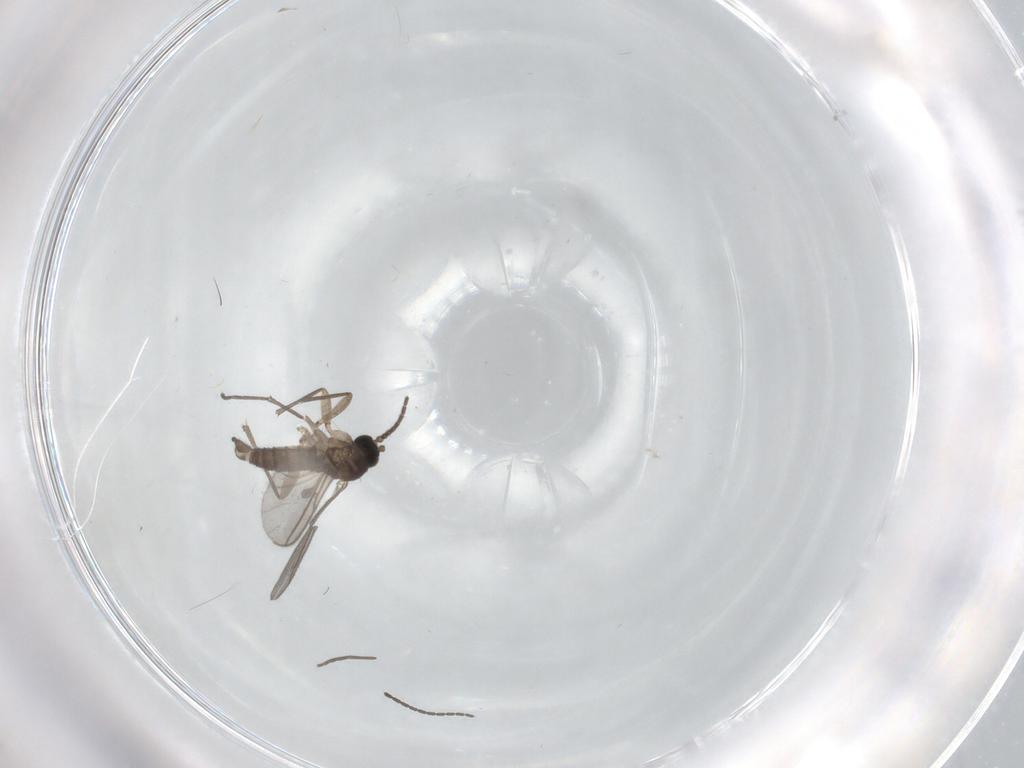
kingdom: Animalia
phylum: Arthropoda
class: Insecta
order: Diptera
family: Sciaridae
